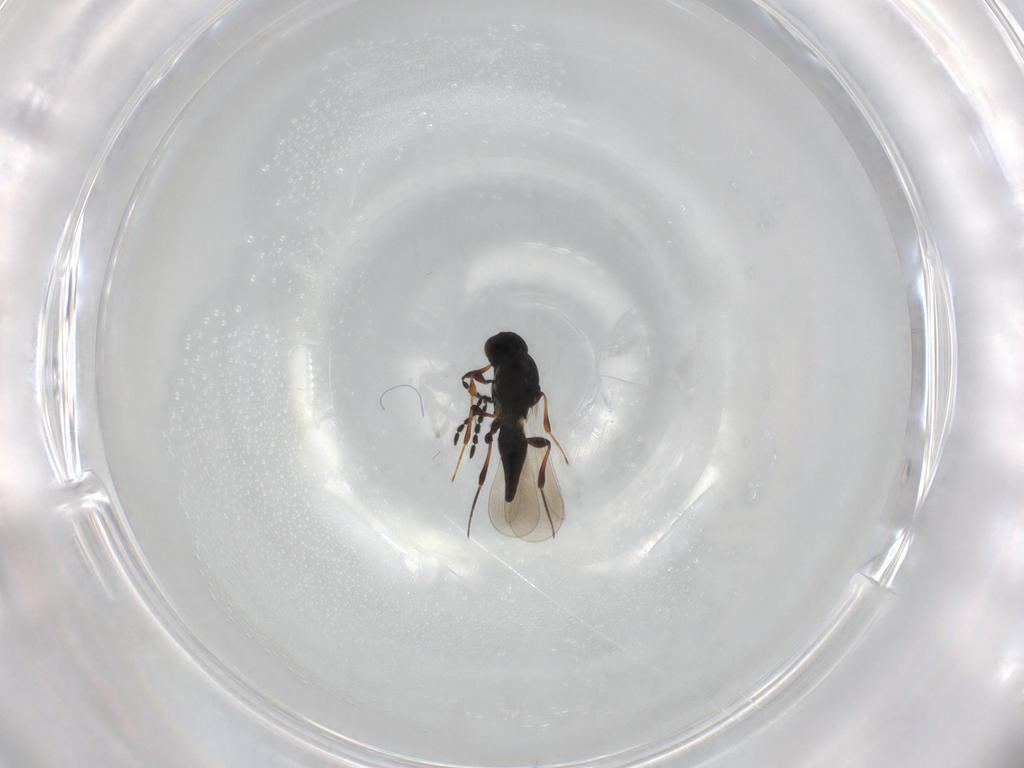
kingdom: Animalia
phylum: Arthropoda
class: Insecta
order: Hymenoptera
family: Platygastridae
